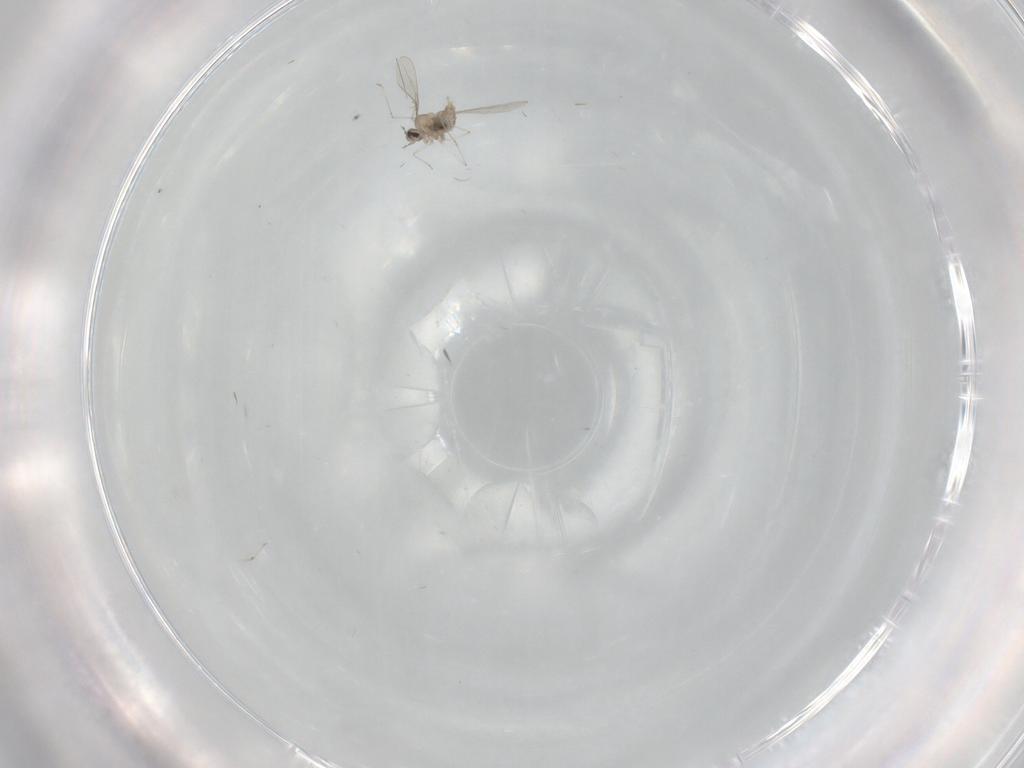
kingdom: Animalia
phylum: Arthropoda
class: Insecta
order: Diptera
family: Cecidomyiidae
